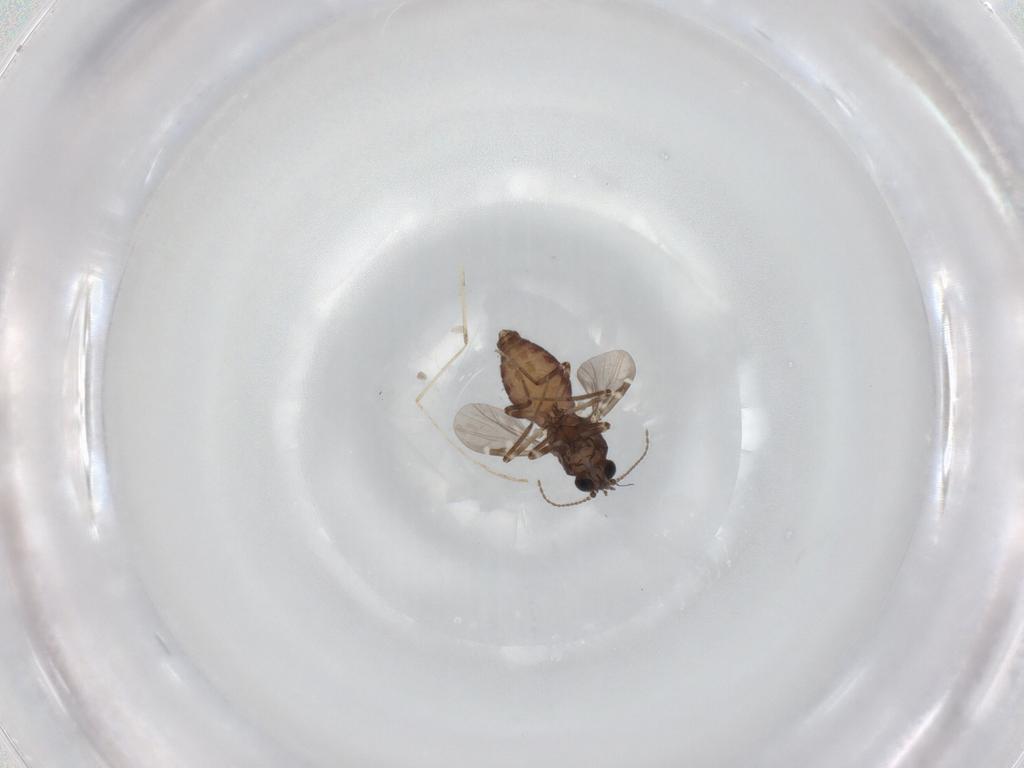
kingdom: Animalia
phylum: Arthropoda
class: Insecta
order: Diptera
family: Ceratopogonidae
